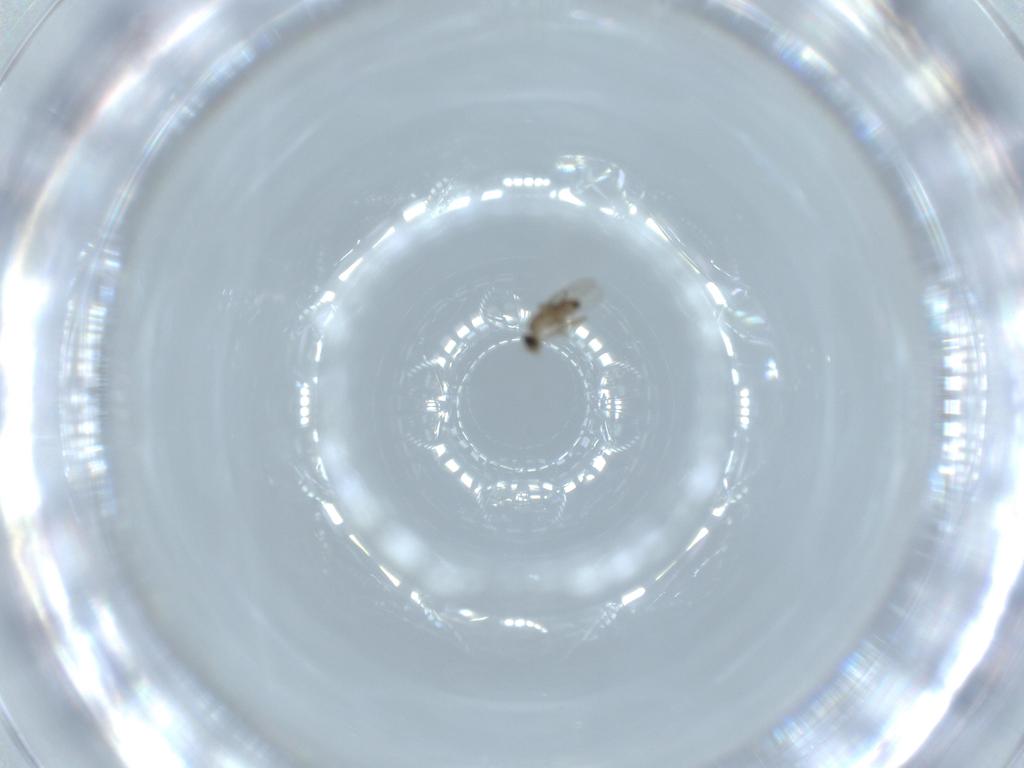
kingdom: Animalia
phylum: Arthropoda
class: Insecta
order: Diptera
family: Phoridae
